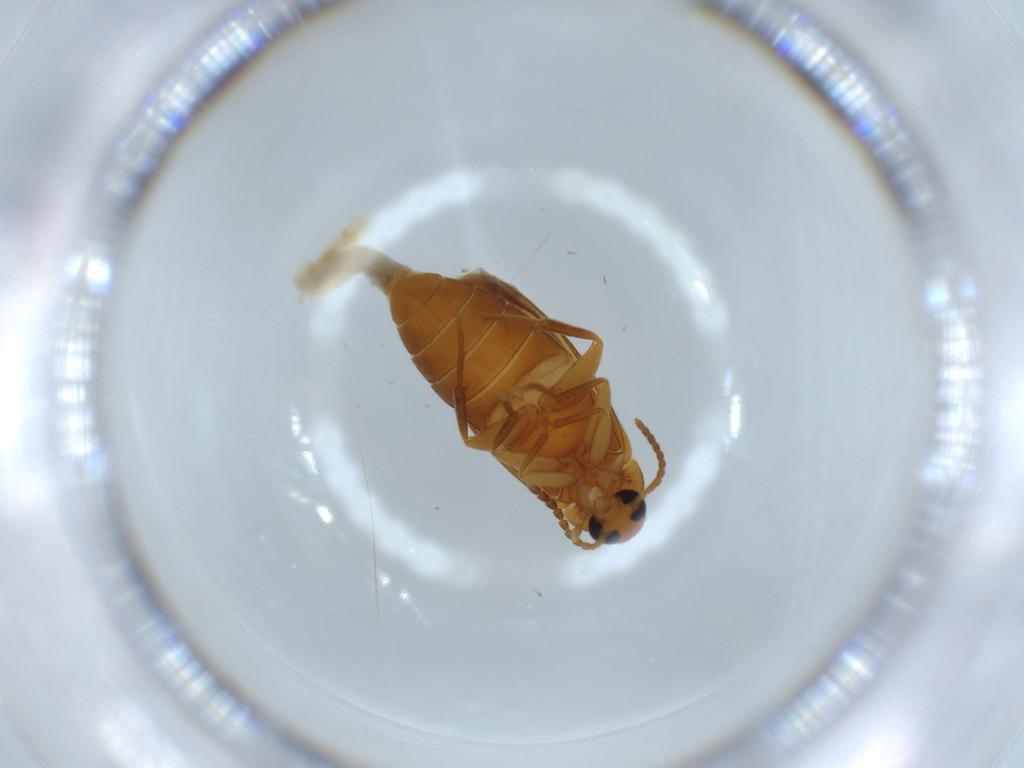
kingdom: Animalia
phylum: Arthropoda
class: Insecta
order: Coleoptera
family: Coccinellidae
